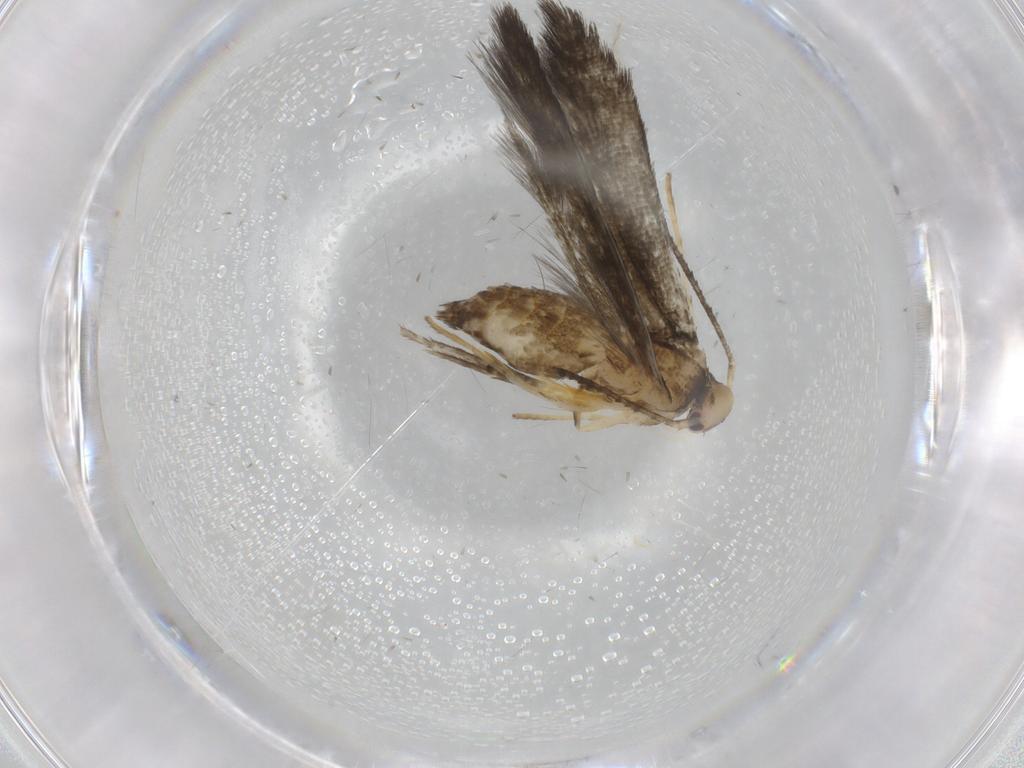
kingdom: Animalia
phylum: Arthropoda
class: Insecta
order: Lepidoptera
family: Stathmopodidae
